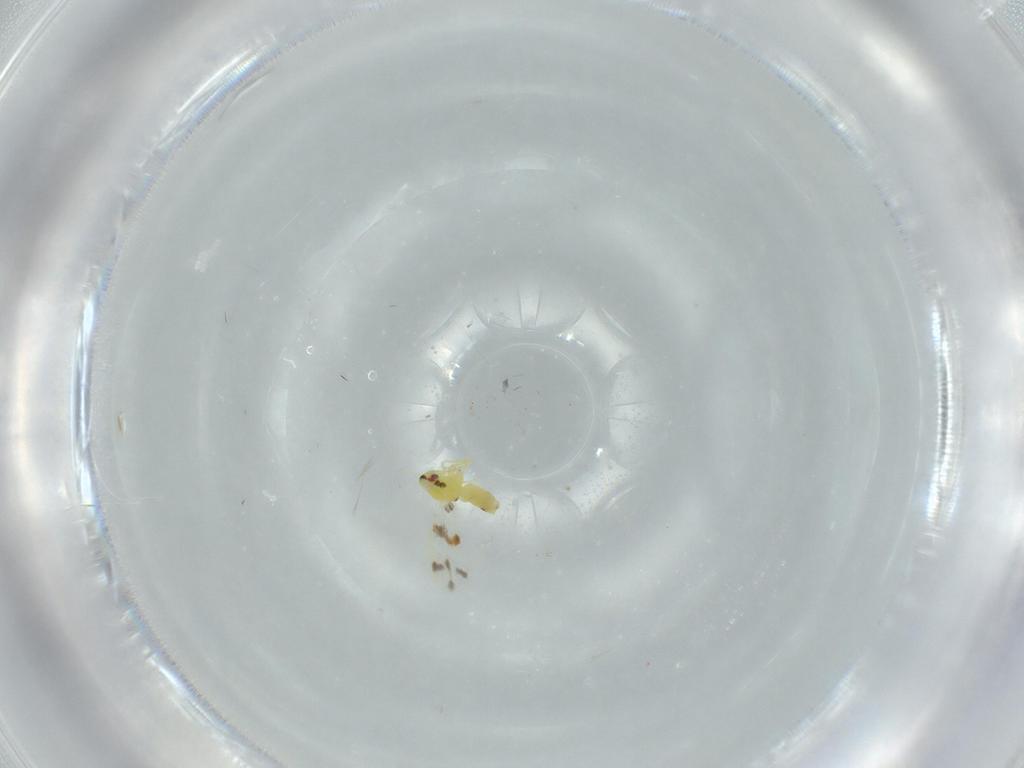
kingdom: Animalia
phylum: Arthropoda
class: Insecta
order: Hemiptera
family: Aleyrodidae
